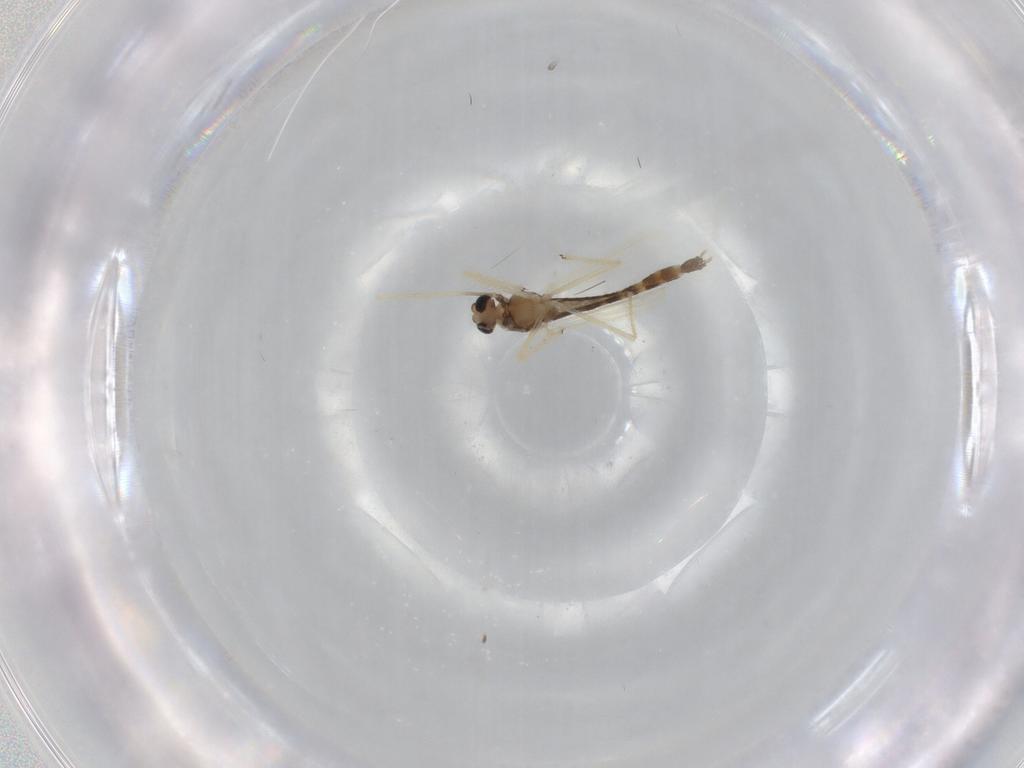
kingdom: Animalia
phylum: Arthropoda
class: Insecta
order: Diptera
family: Chironomidae
